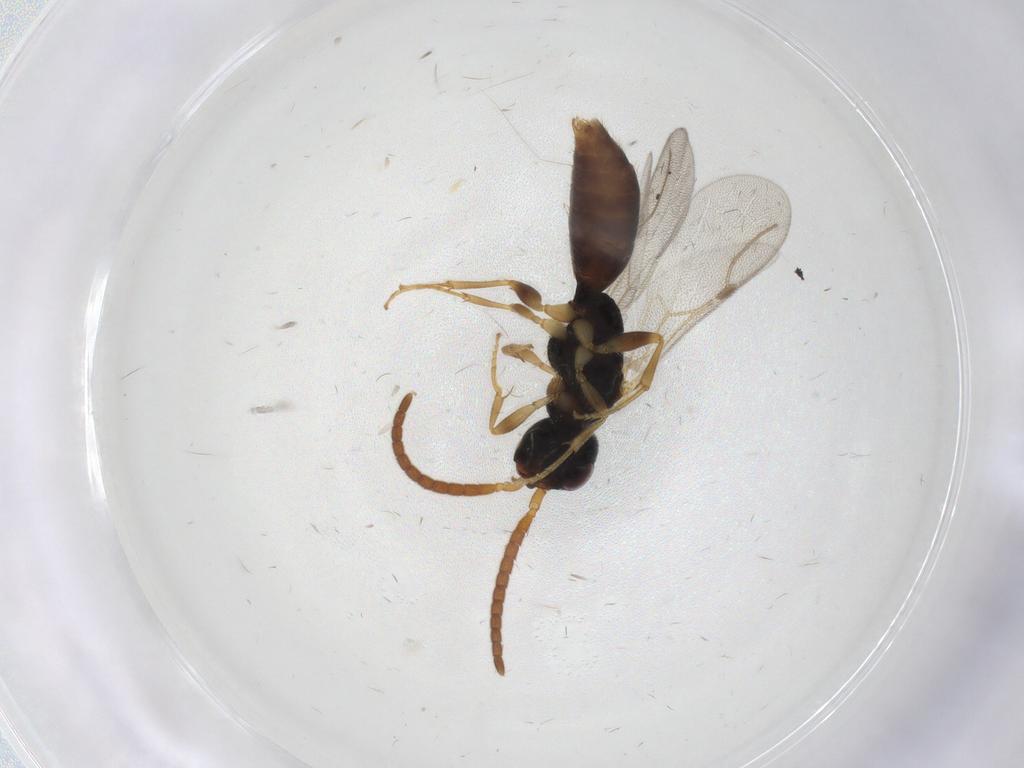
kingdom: Animalia
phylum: Arthropoda
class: Insecta
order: Hymenoptera
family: Bethylidae
